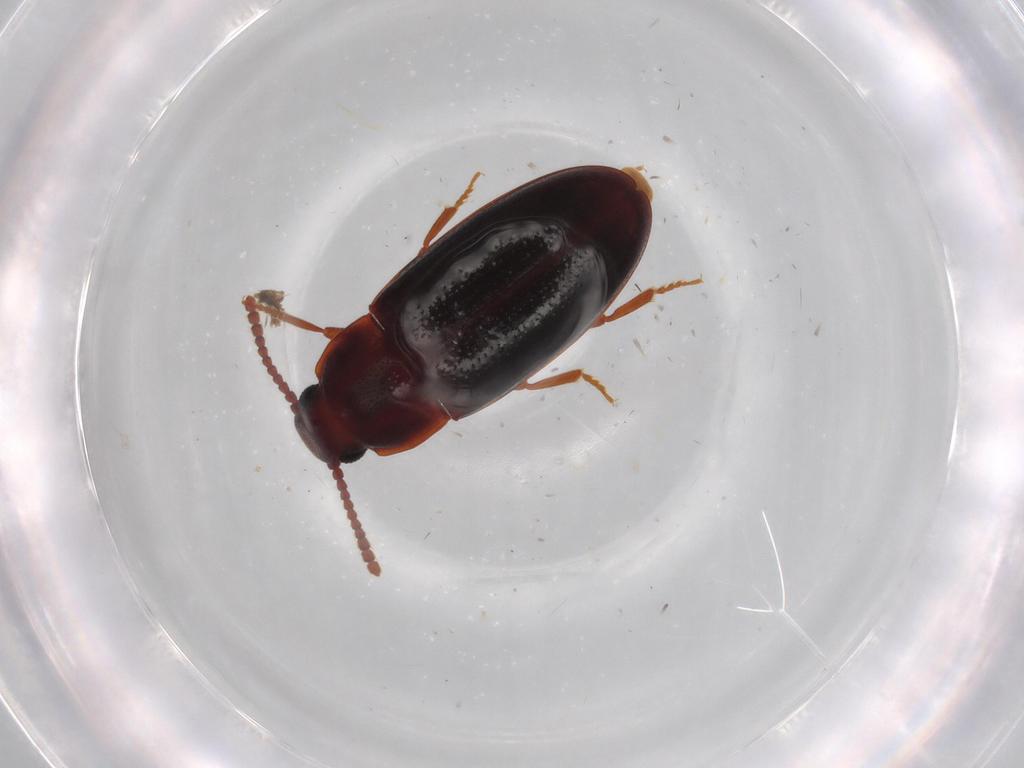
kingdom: Animalia
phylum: Arthropoda
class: Insecta
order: Coleoptera
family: Erotylidae
